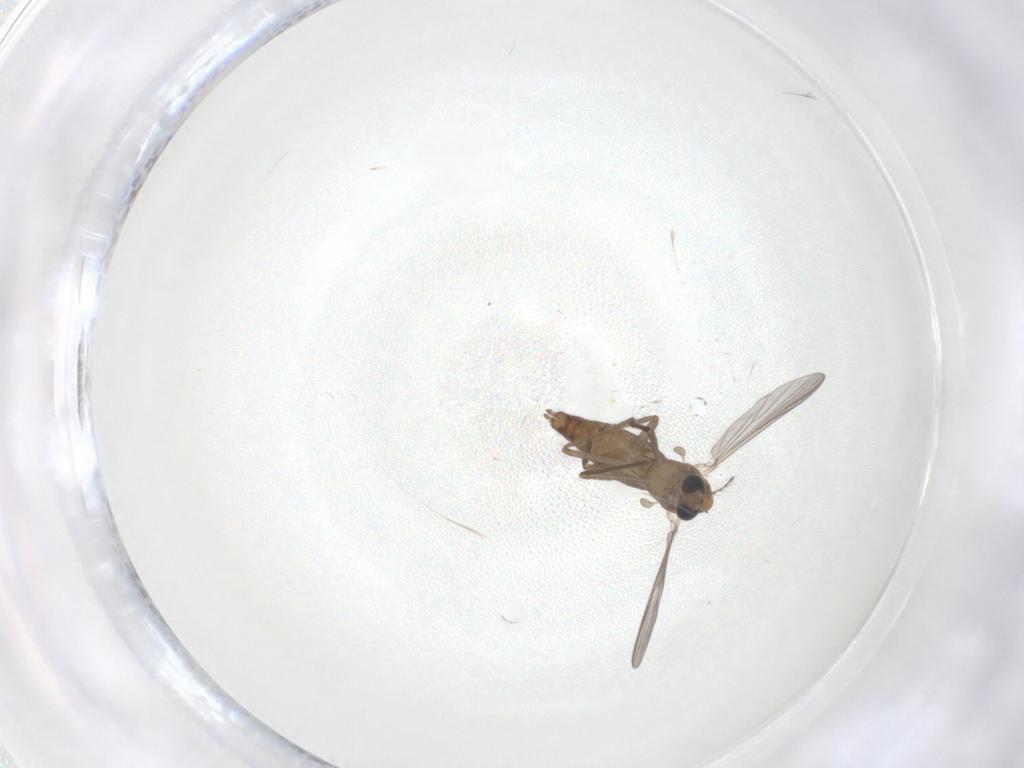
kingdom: Animalia
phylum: Arthropoda
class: Insecta
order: Diptera
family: Chironomidae
